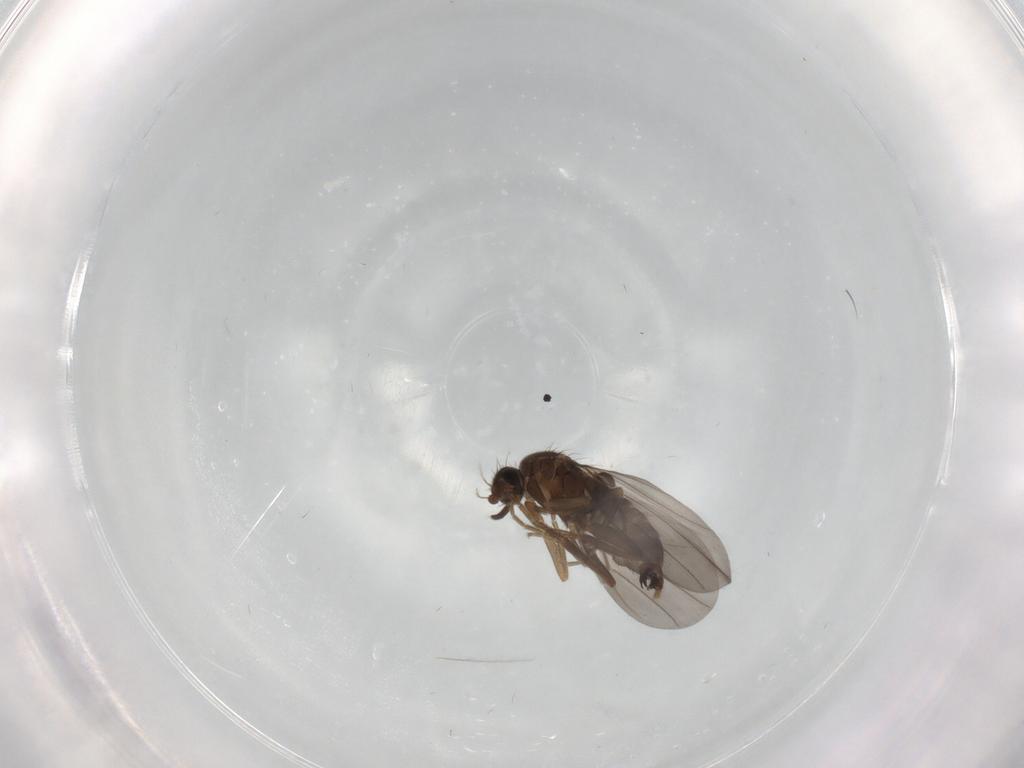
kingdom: Animalia
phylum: Arthropoda
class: Insecta
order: Diptera
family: Sciaridae
